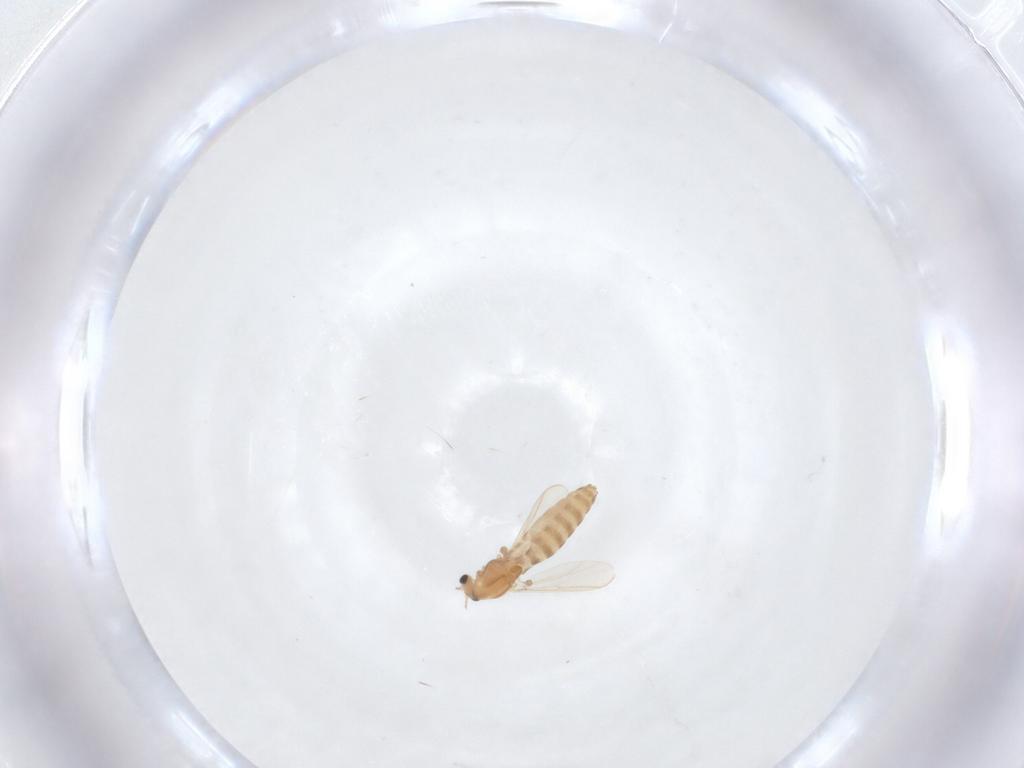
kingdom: Animalia
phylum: Arthropoda
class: Insecta
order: Diptera
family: Chironomidae
